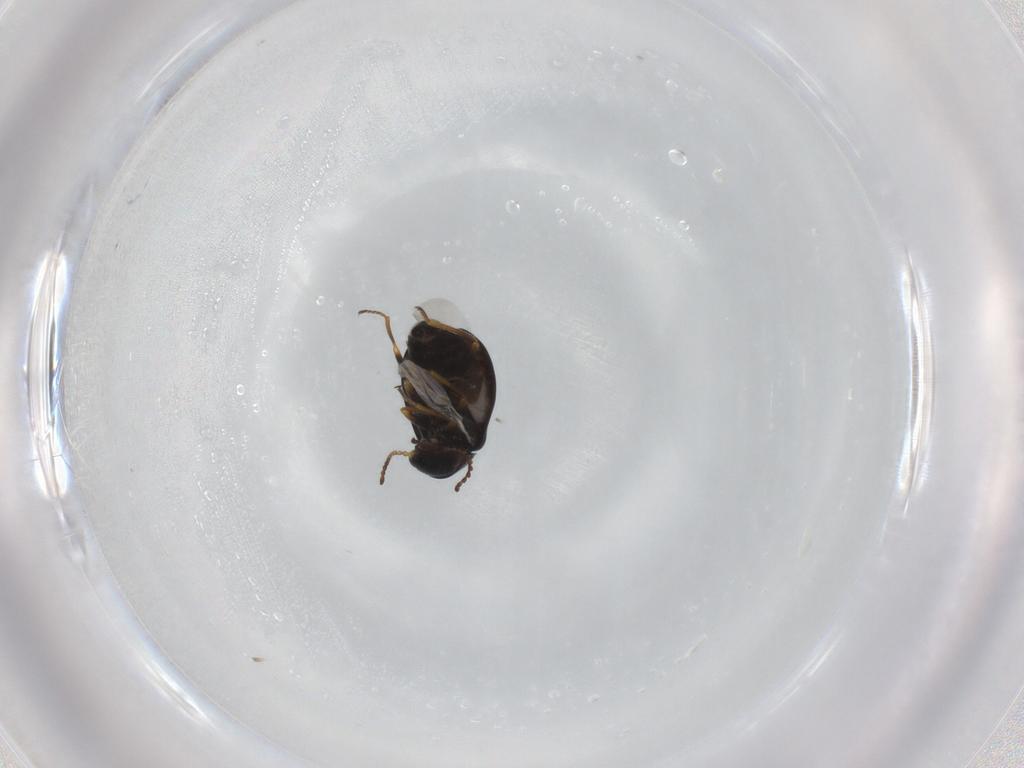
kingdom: Animalia
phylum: Arthropoda
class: Insecta
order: Coleoptera
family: Melyridae
